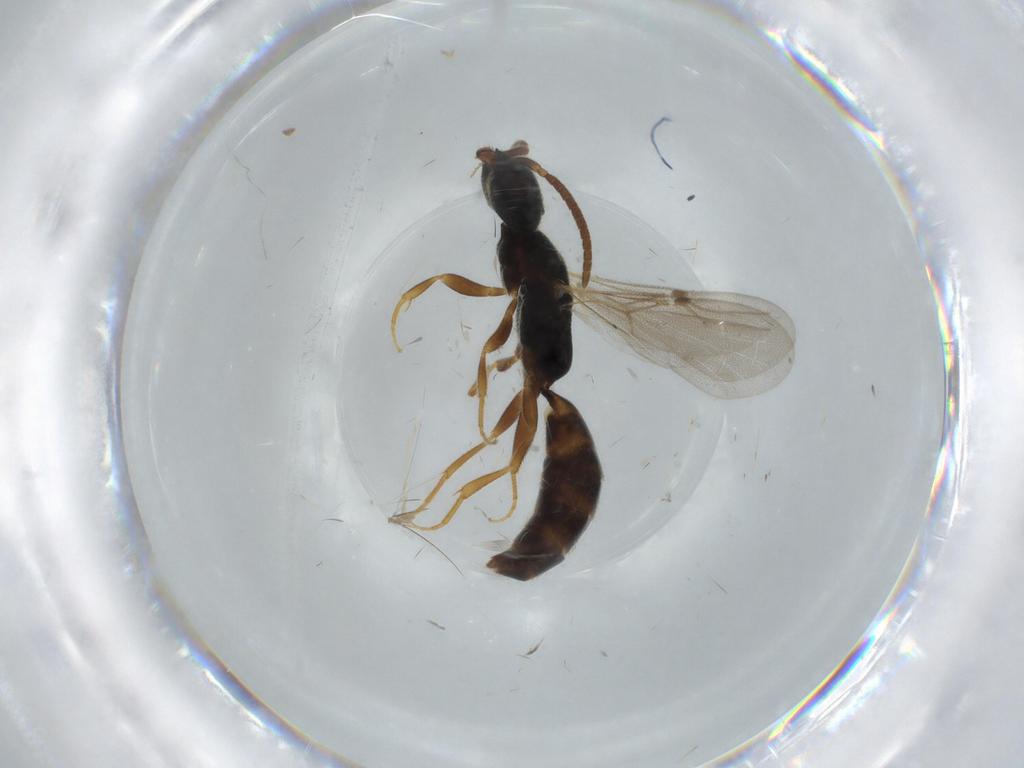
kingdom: Animalia
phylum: Arthropoda
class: Insecta
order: Hymenoptera
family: Bethylidae
